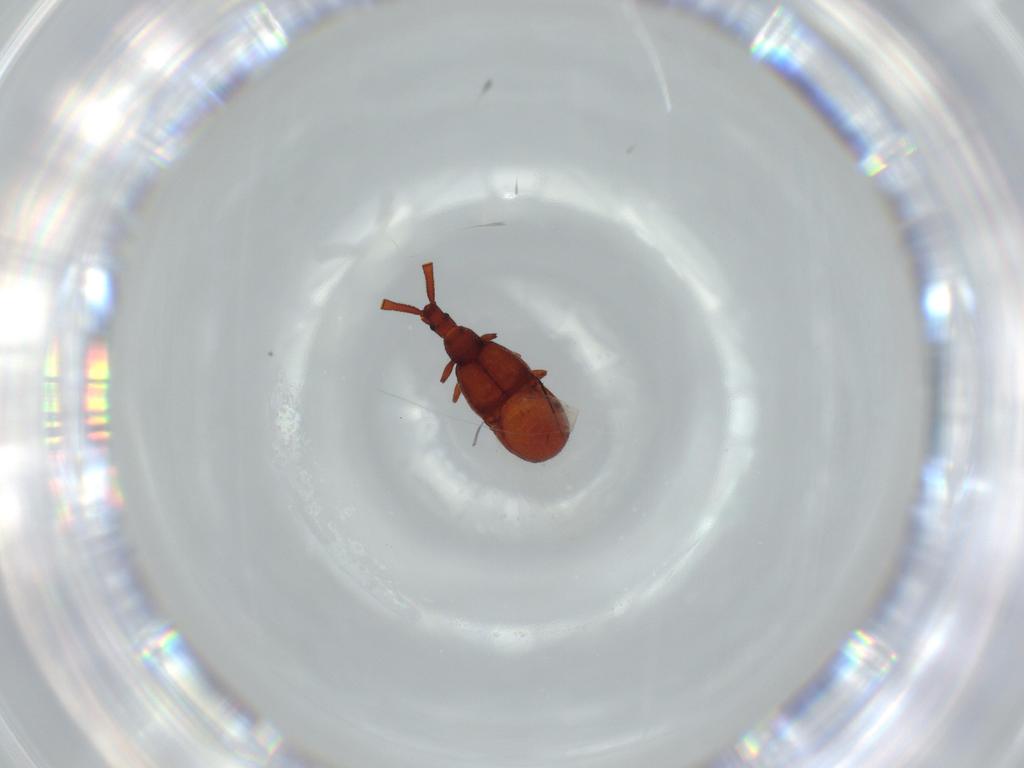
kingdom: Animalia
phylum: Arthropoda
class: Insecta
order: Coleoptera
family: Staphylinidae
